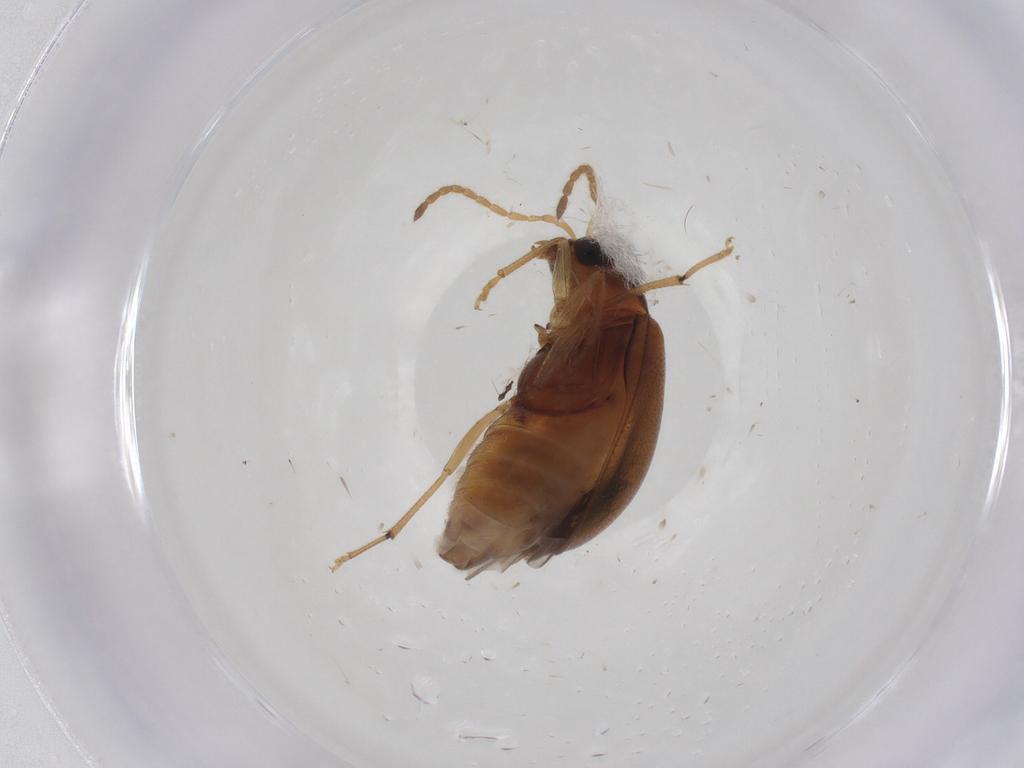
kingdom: Animalia
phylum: Arthropoda
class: Insecta
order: Coleoptera
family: Chrysomelidae
